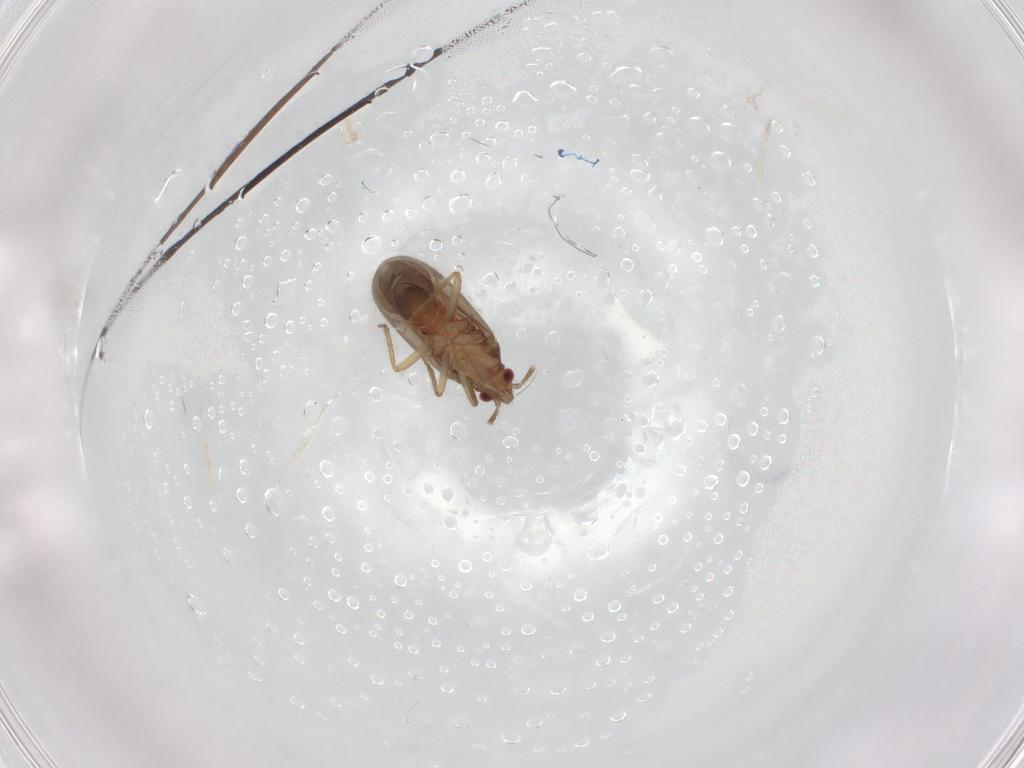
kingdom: Animalia
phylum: Arthropoda
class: Insecta
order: Hemiptera
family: Ceratocombidae
